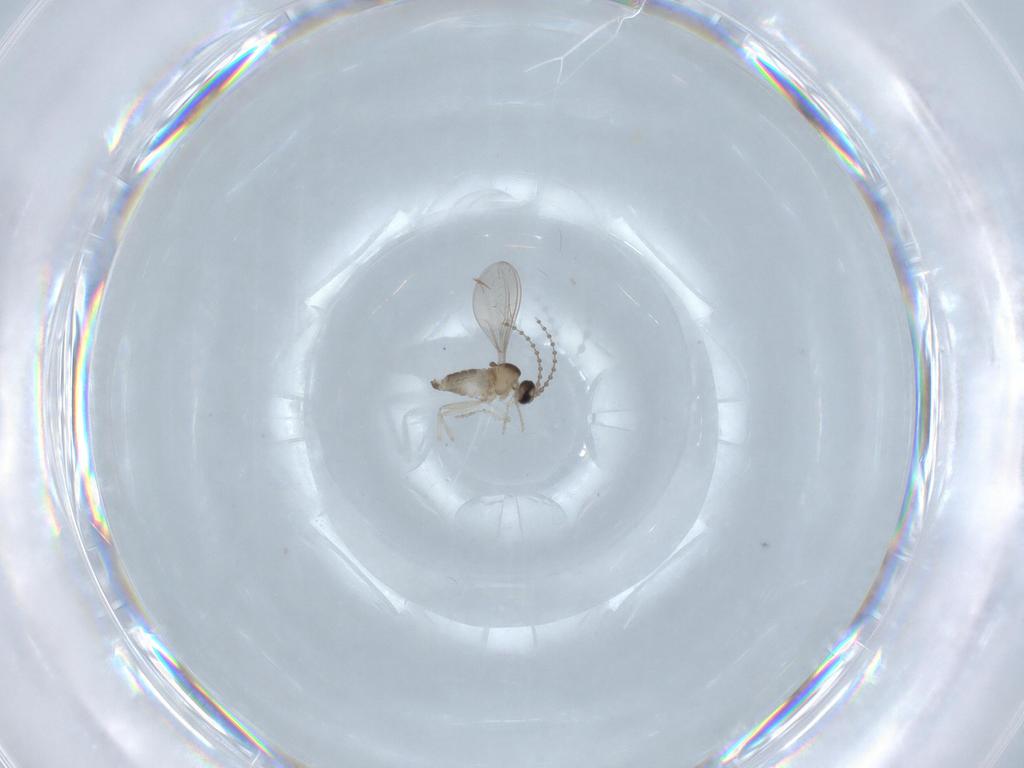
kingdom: Animalia
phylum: Arthropoda
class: Insecta
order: Diptera
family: Cecidomyiidae
